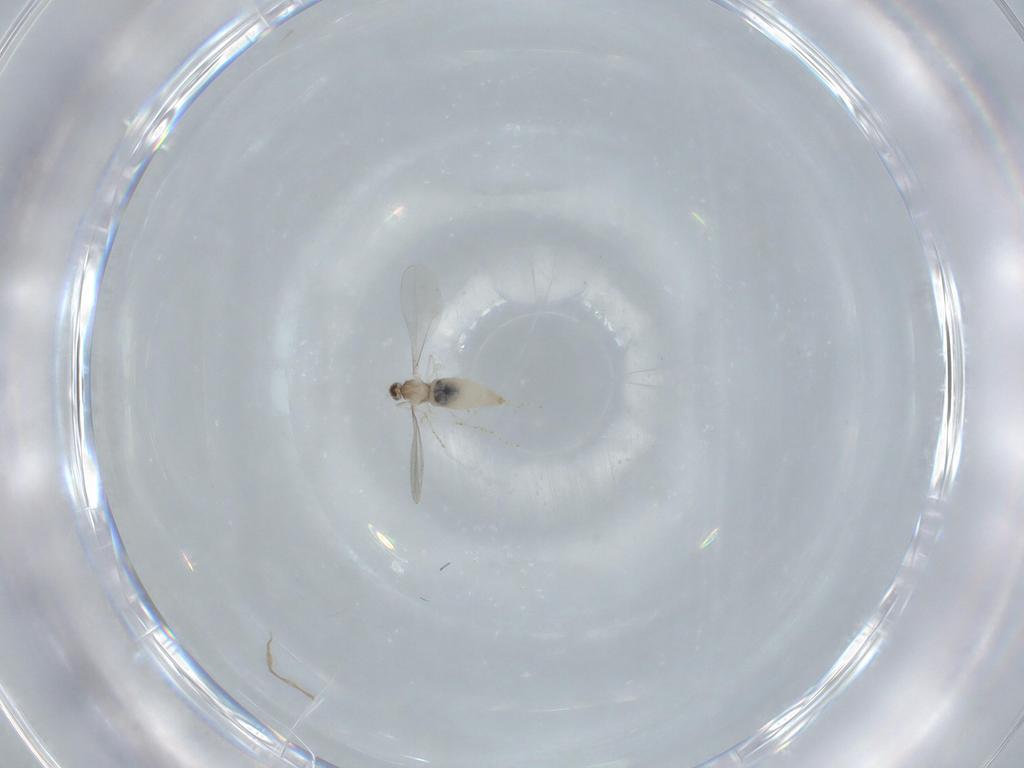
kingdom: Animalia
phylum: Arthropoda
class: Insecta
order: Diptera
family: Cecidomyiidae
